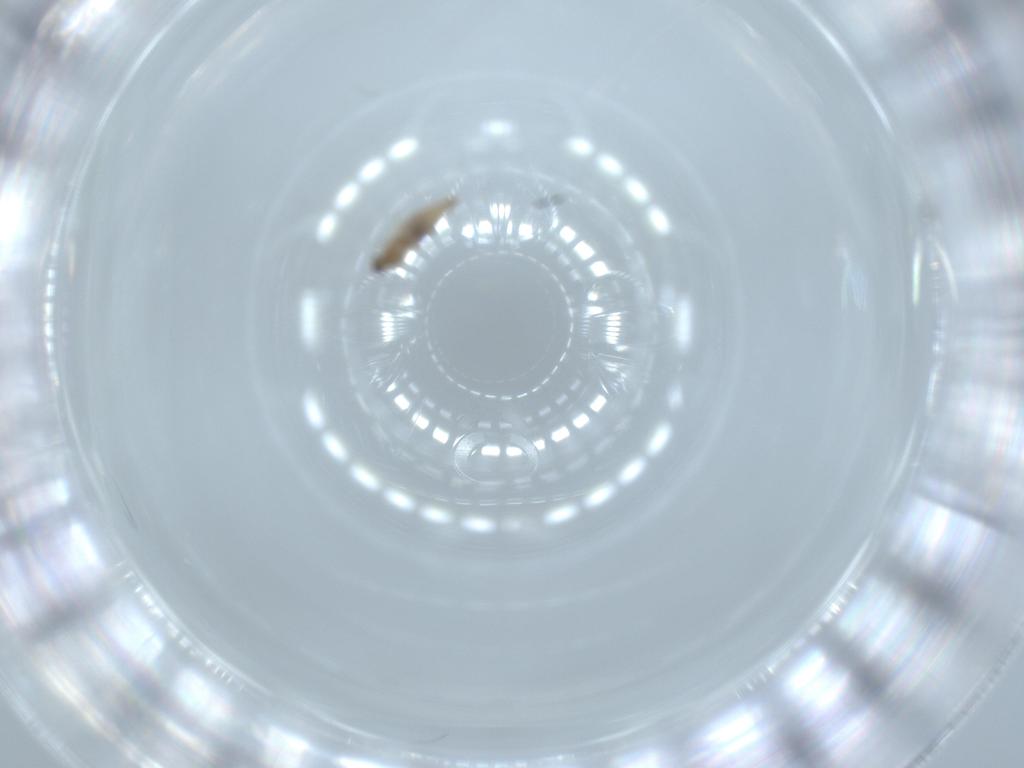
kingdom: Animalia
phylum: Arthropoda
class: Insecta
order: Diptera
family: Cecidomyiidae
